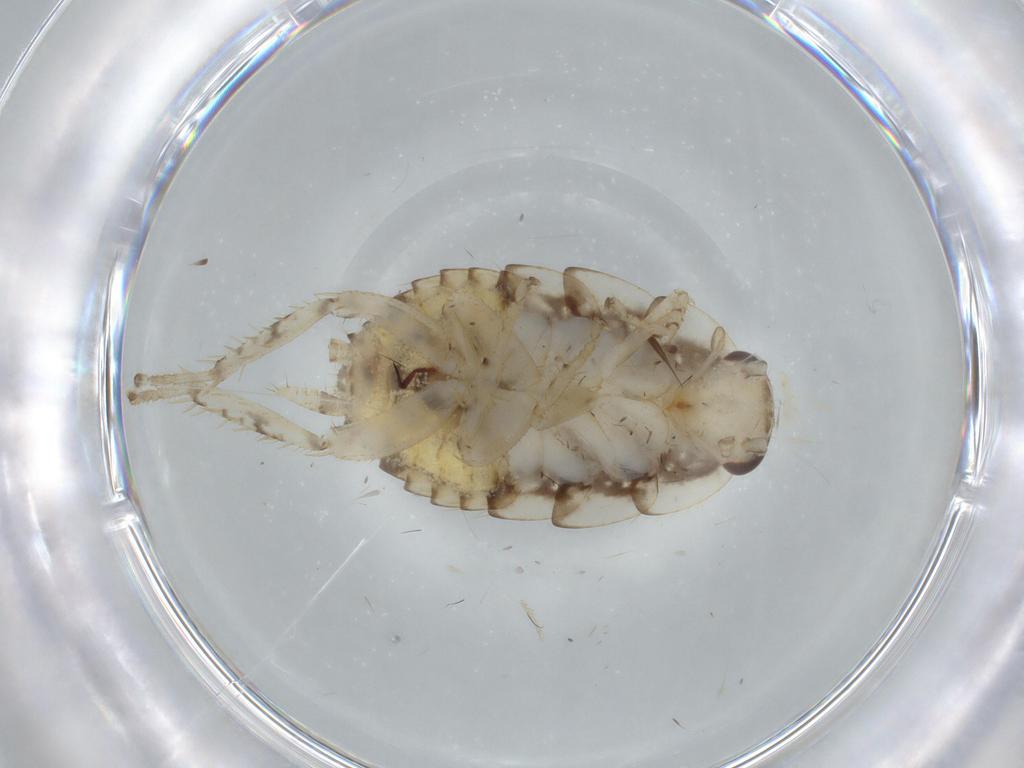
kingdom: Animalia
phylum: Arthropoda
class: Insecta
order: Blattodea
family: Ectobiidae
